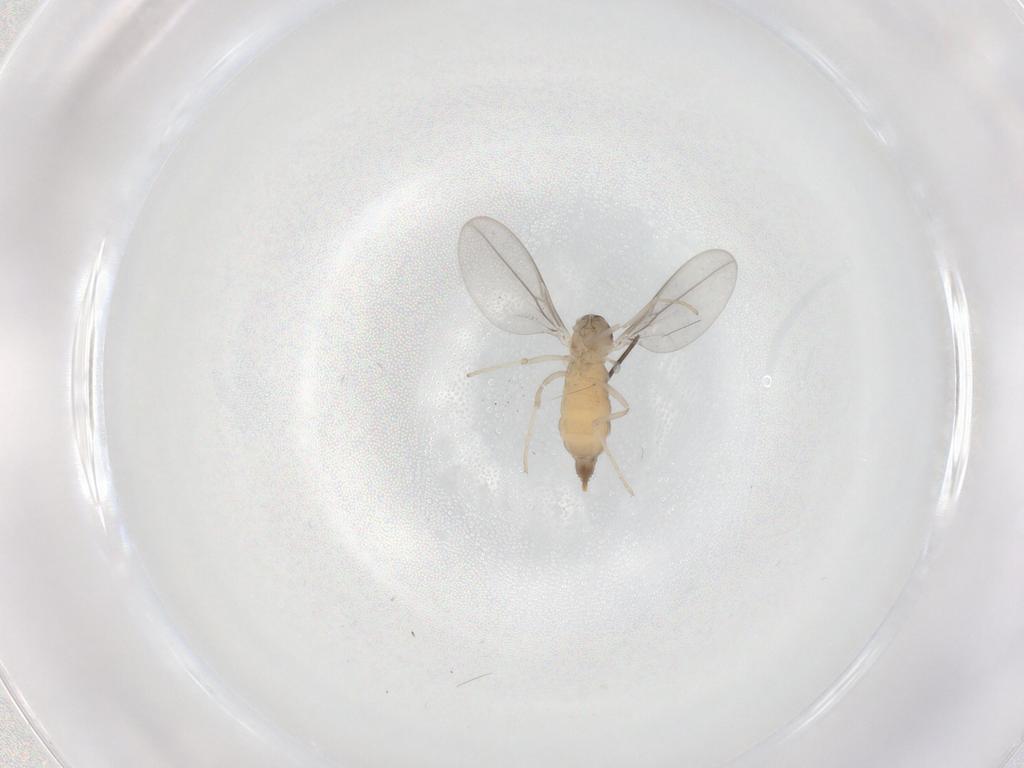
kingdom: Animalia
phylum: Arthropoda
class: Insecta
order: Diptera
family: Cecidomyiidae
